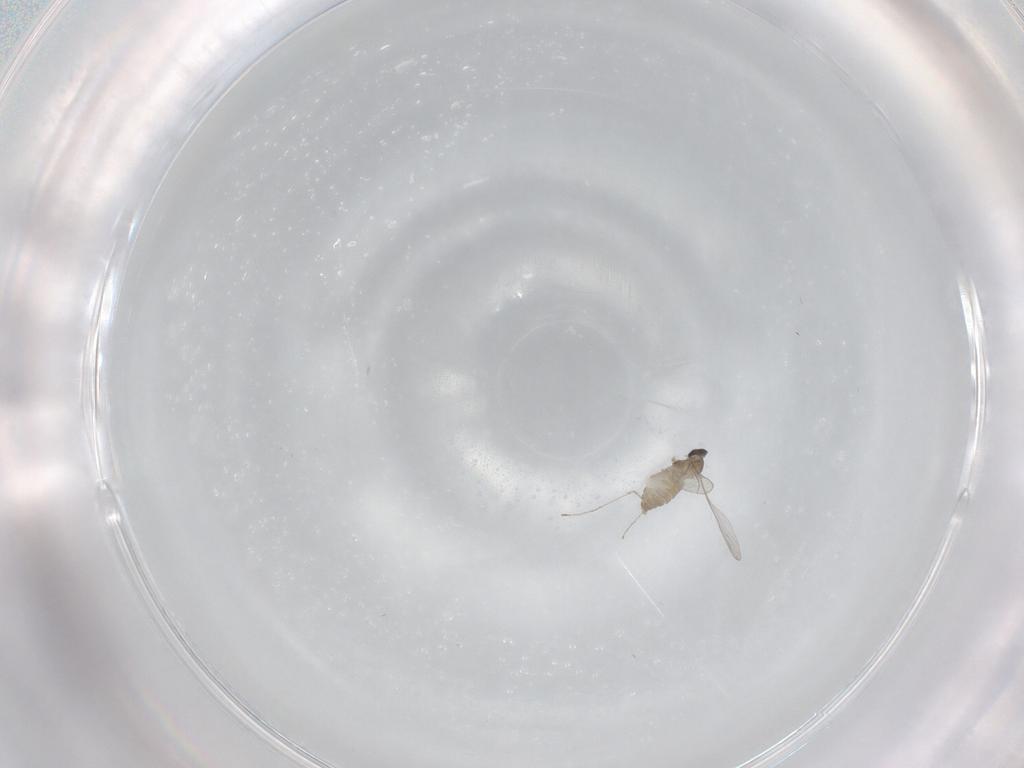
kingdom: Animalia
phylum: Arthropoda
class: Insecta
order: Diptera
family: Cecidomyiidae
